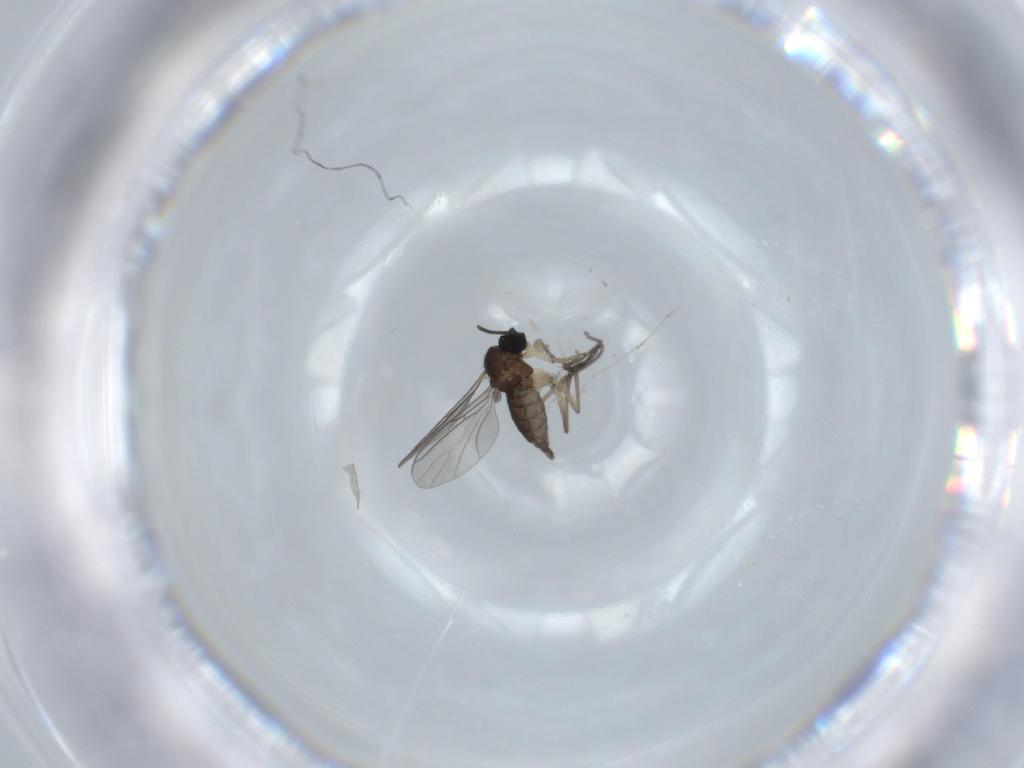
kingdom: Animalia
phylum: Arthropoda
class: Insecta
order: Diptera
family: Sciaridae
